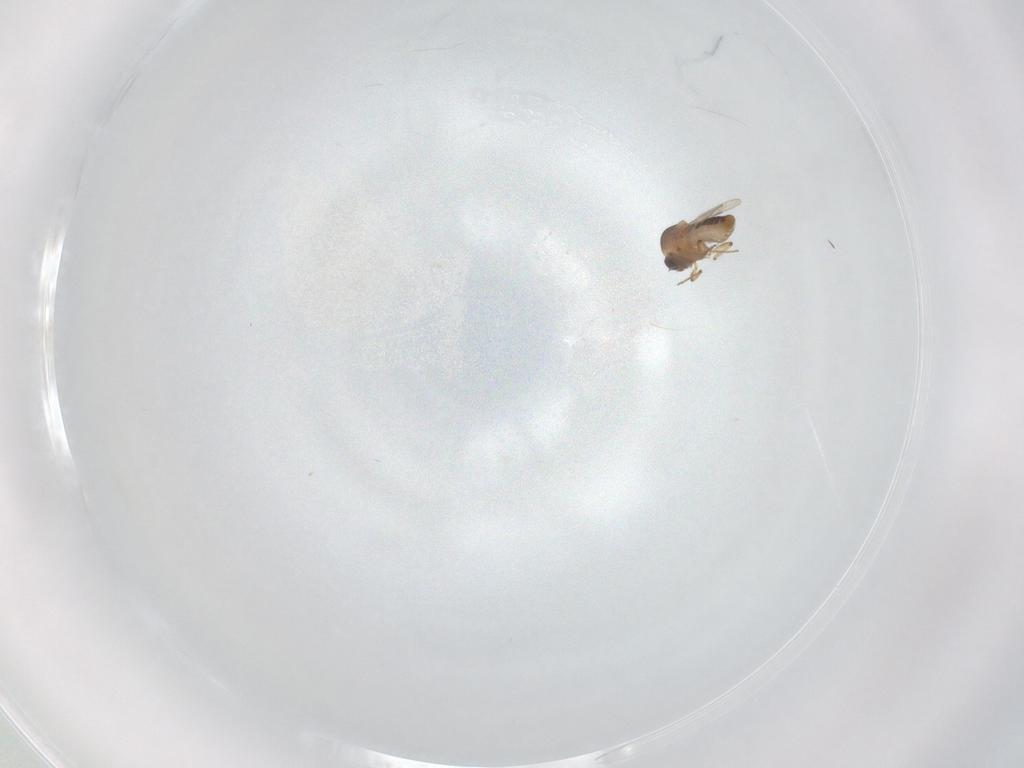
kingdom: Animalia
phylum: Arthropoda
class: Insecta
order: Diptera
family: Ceratopogonidae
